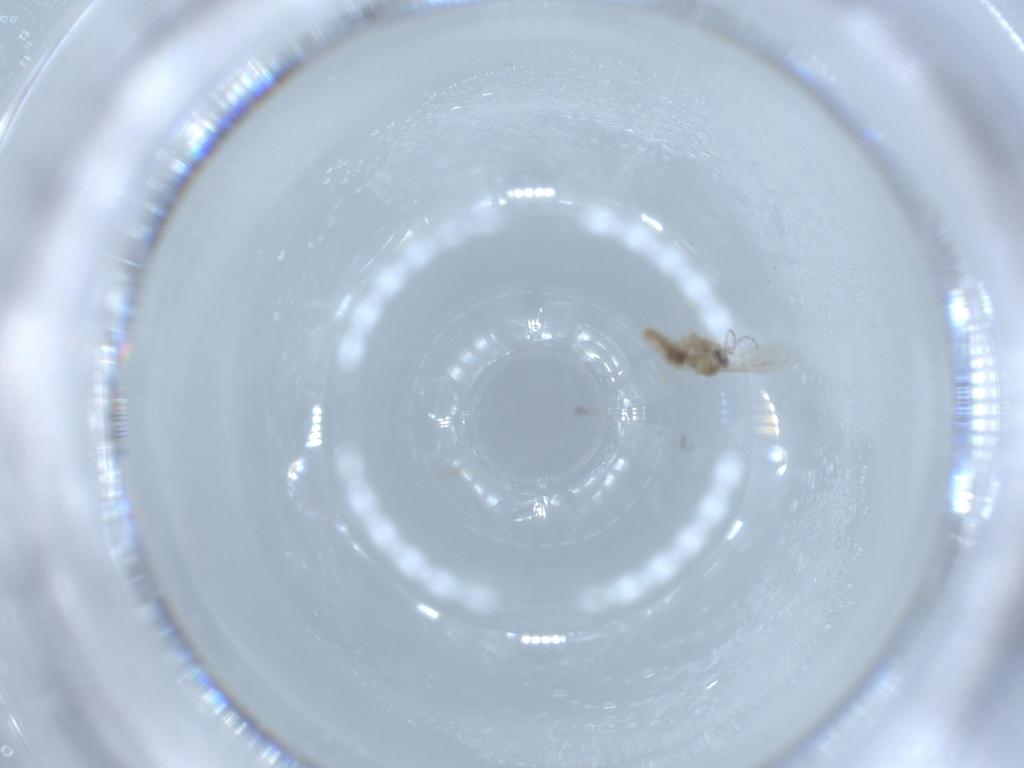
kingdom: Animalia
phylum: Arthropoda
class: Insecta
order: Diptera
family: Cecidomyiidae
